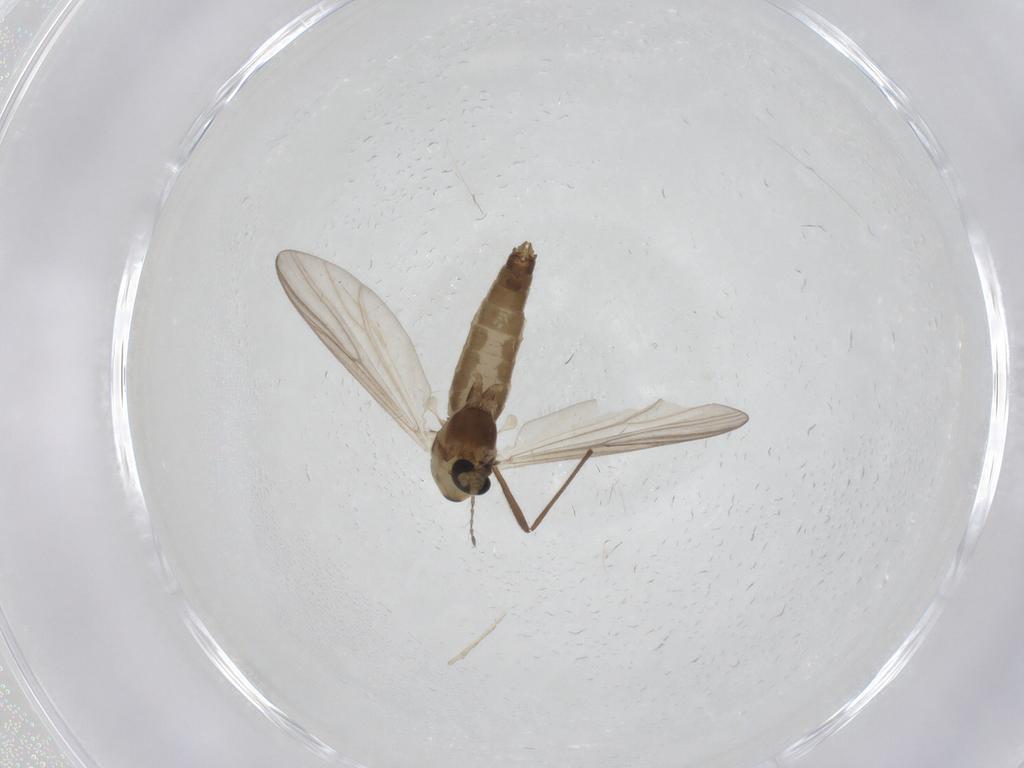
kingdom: Animalia
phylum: Arthropoda
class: Insecta
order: Diptera
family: Chironomidae
